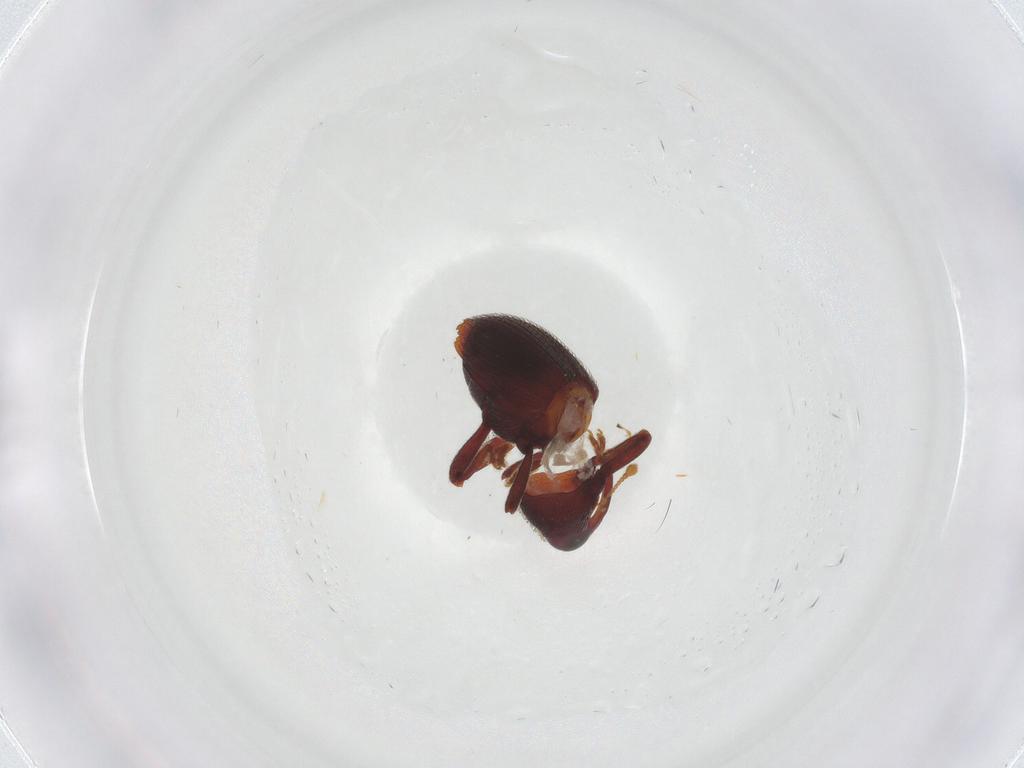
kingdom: Animalia
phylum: Arthropoda
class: Insecta
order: Coleoptera
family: Curculionidae
